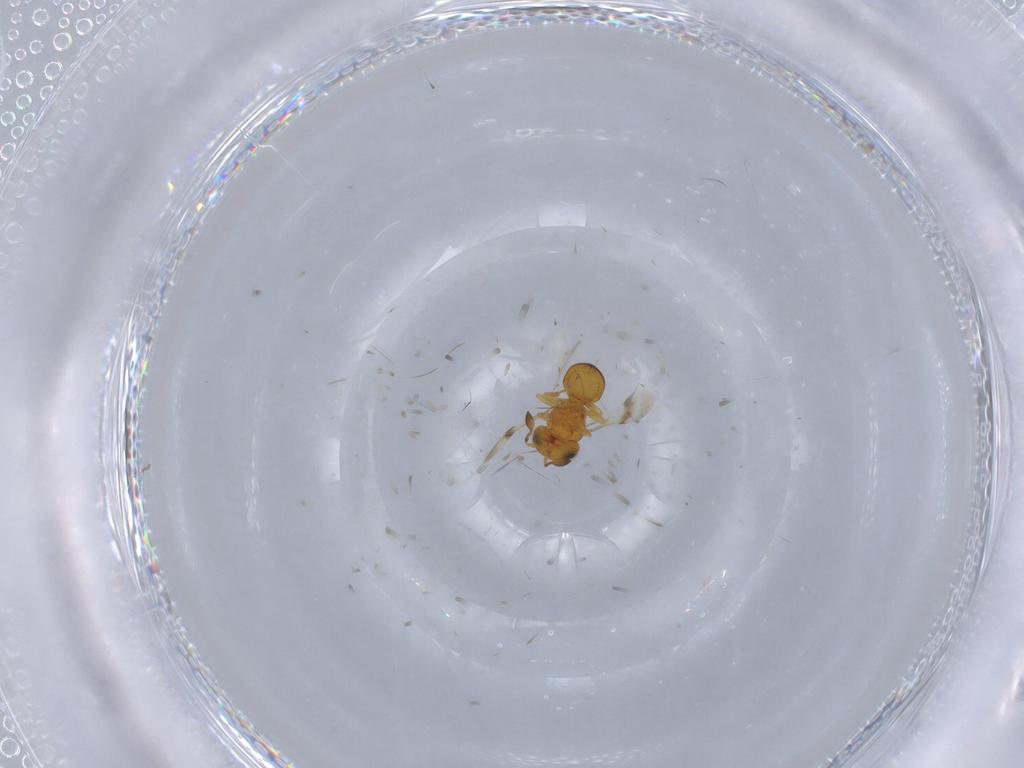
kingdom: Animalia
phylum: Arthropoda
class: Insecta
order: Hymenoptera
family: Scelionidae
